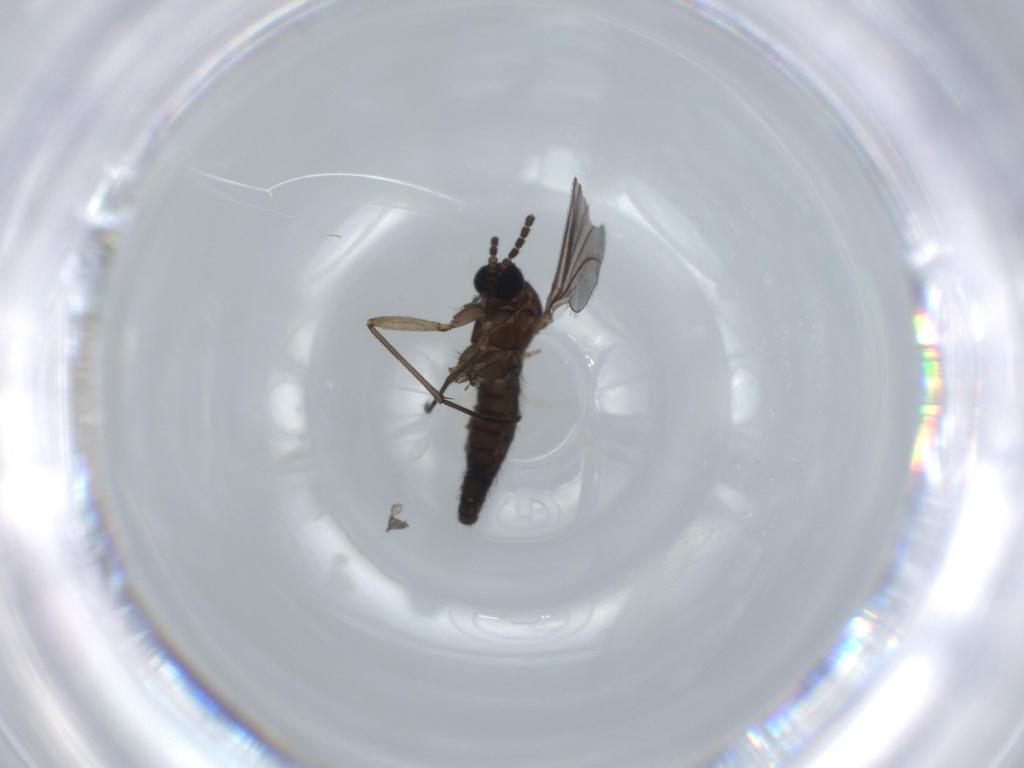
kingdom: Animalia
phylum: Arthropoda
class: Insecta
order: Diptera
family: Sciaridae
